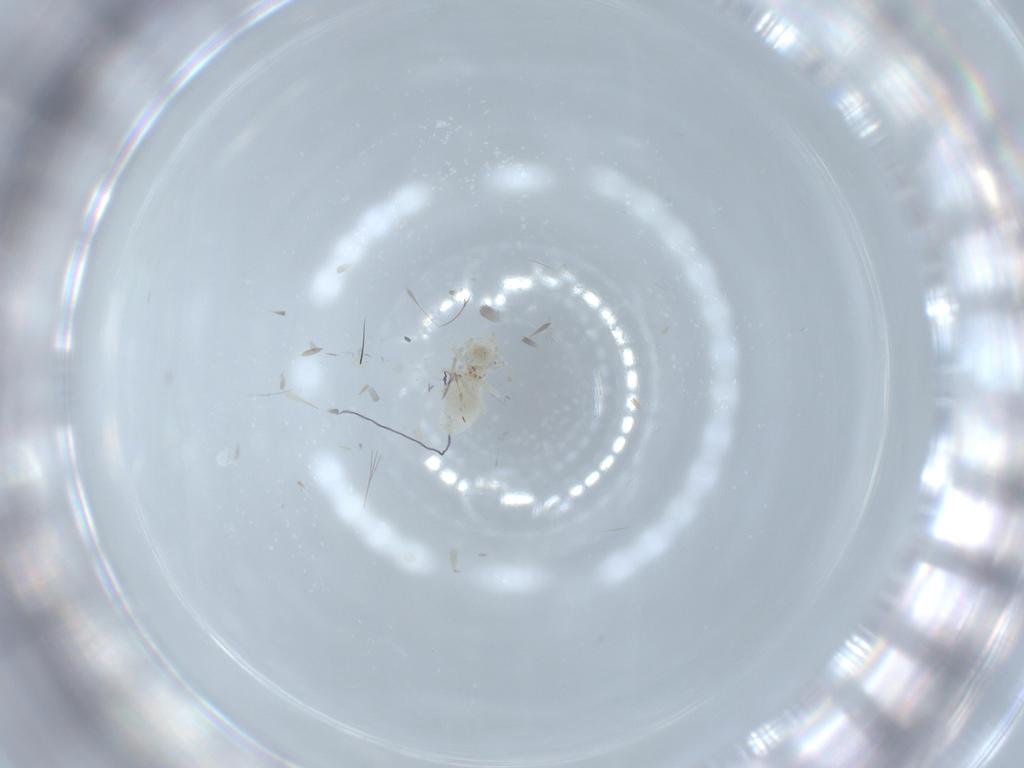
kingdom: Animalia
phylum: Arthropoda
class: Insecta
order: Psocodea
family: Caeciliusidae
